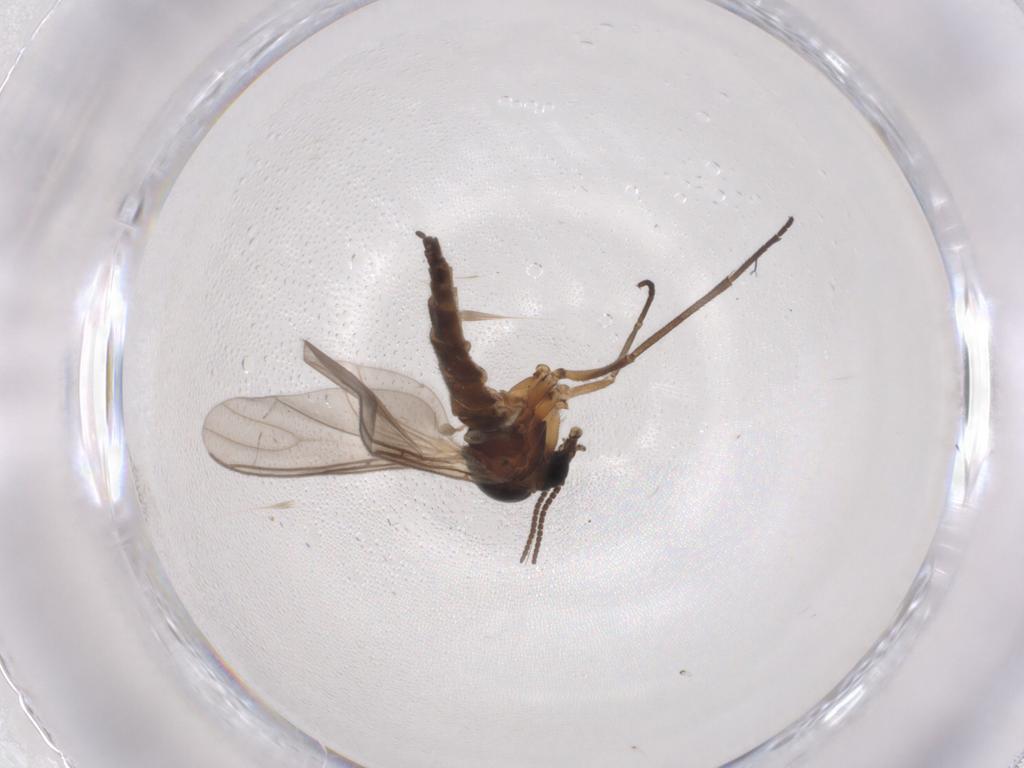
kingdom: Animalia
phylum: Arthropoda
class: Insecta
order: Diptera
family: Sciaridae
